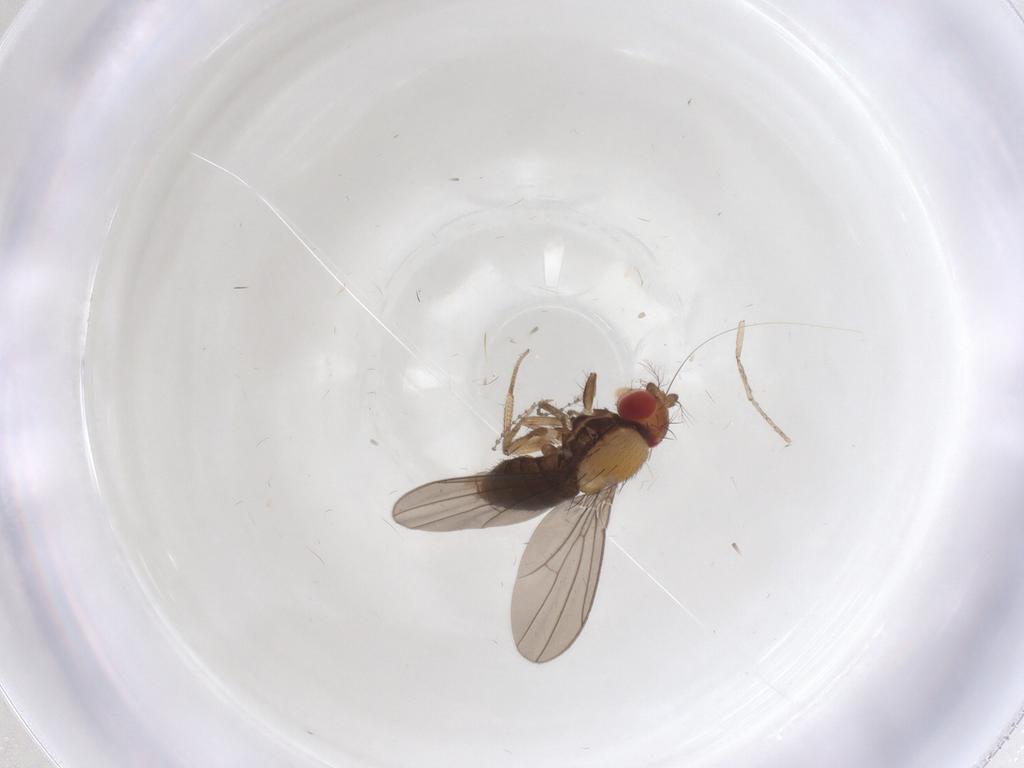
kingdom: Animalia
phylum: Arthropoda
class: Insecta
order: Diptera
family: Drosophilidae
